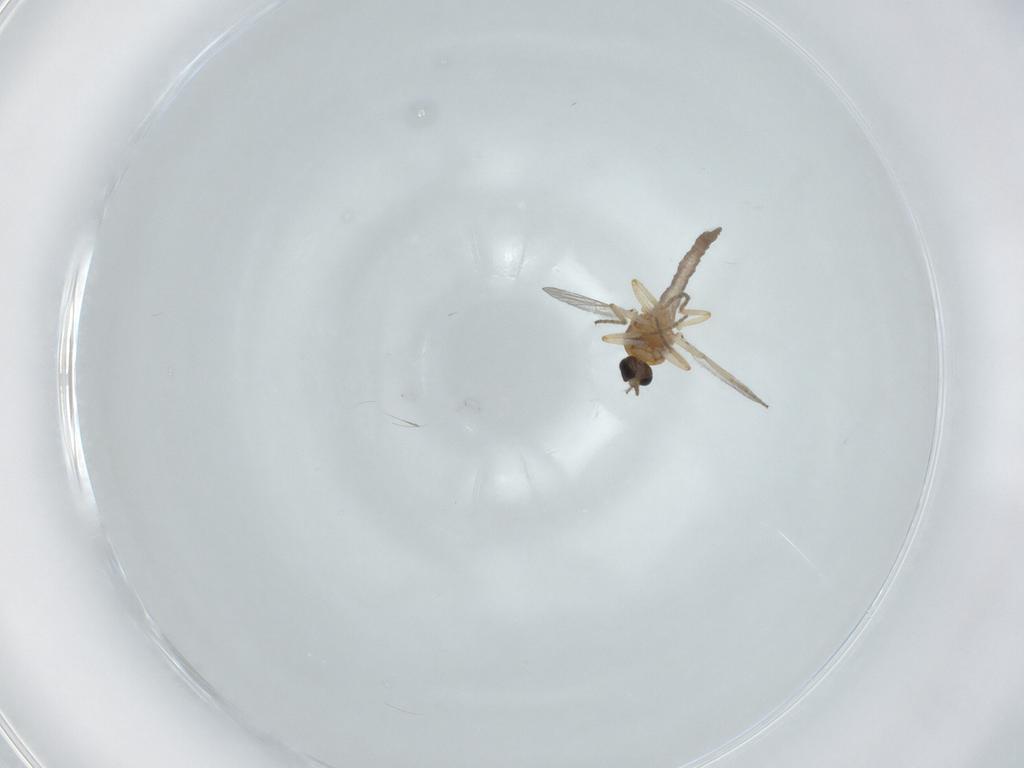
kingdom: Animalia
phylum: Arthropoda
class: Insecta
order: Diptera
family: Ceratopogonidae
